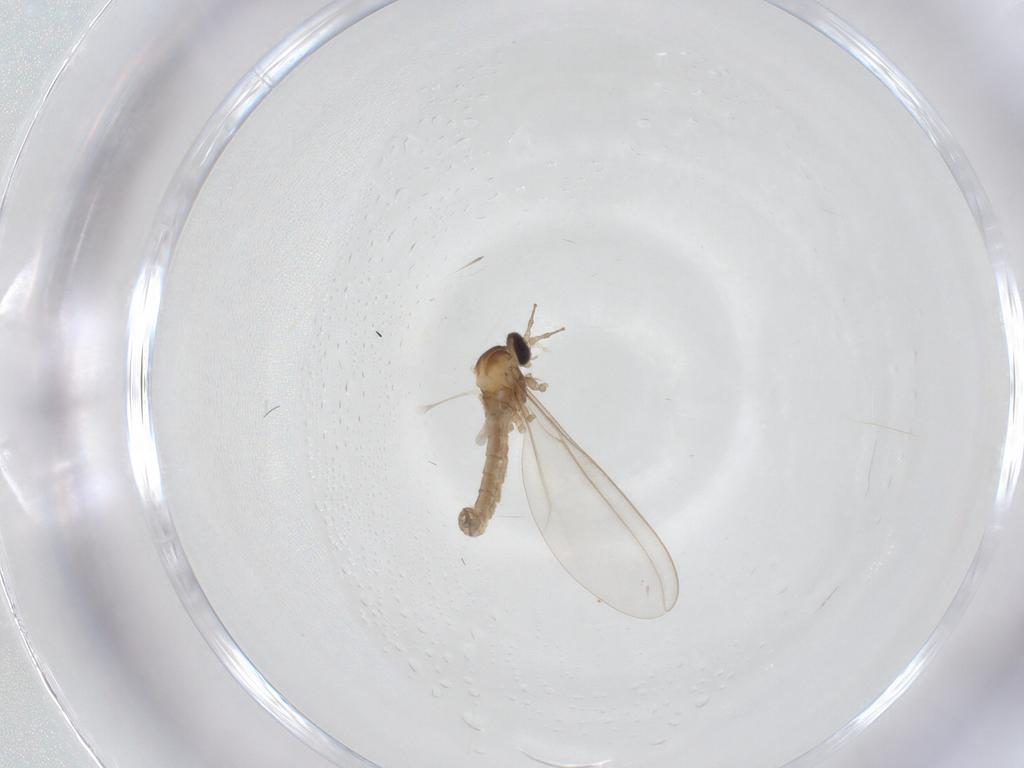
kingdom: Animalia
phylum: Arthropoda
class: Insecta
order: Diptera
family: Cecidomyiidae
